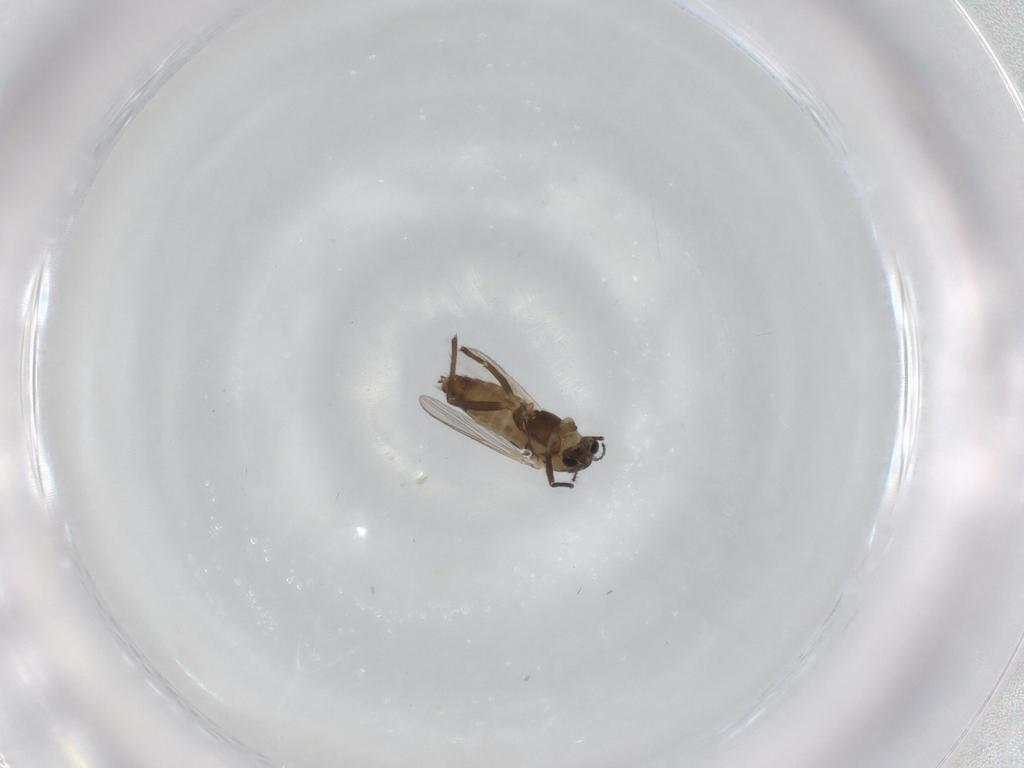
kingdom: Animalia
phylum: Arthropoda
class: Insecta
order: Diptera
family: Chironomidae
